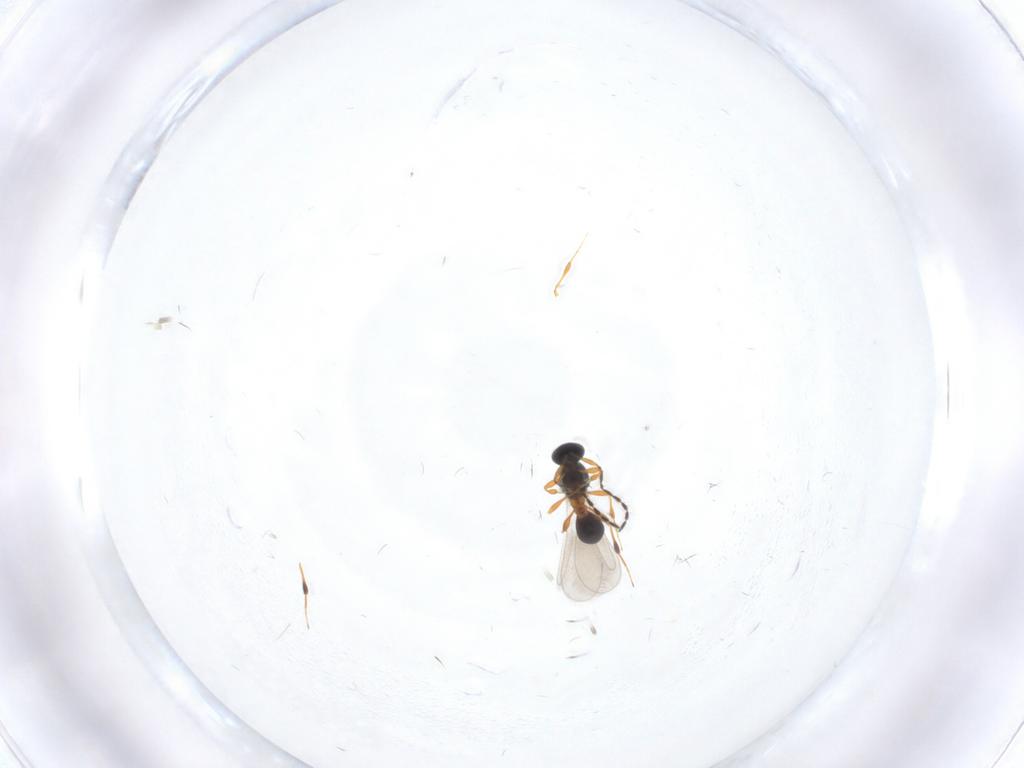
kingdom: Animalia
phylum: Arthropoda
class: Insecta
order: Hymenoptera
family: Platygastridae
